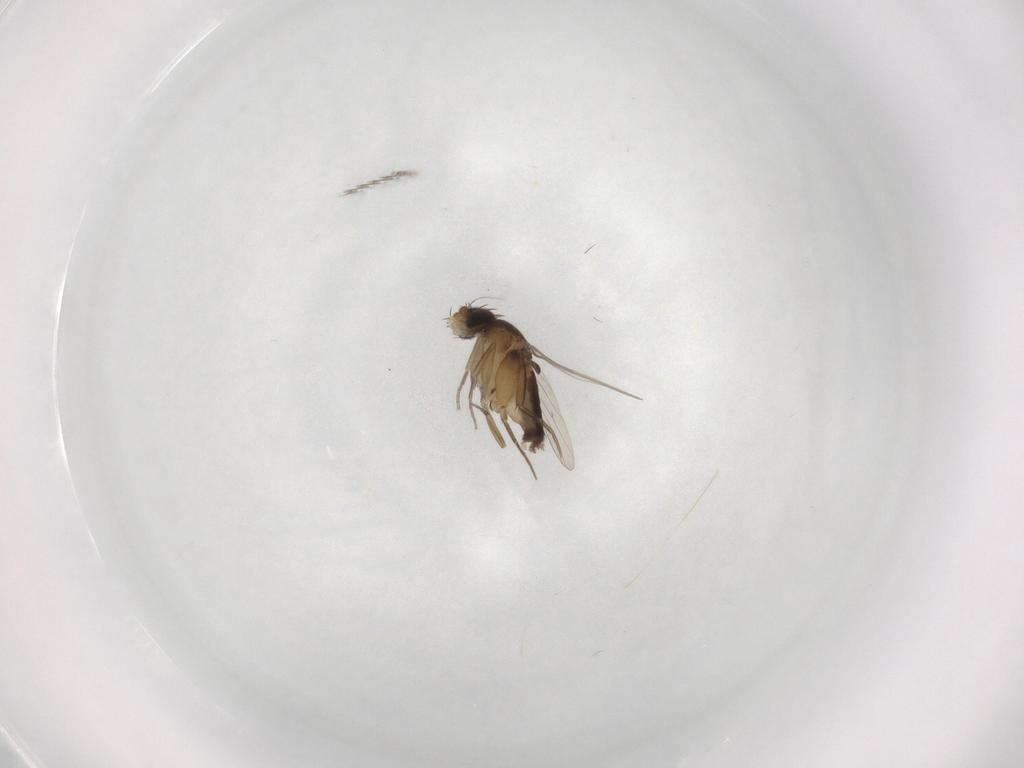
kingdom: Animalia
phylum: Arthropoda
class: Insecta
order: Diptera
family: Phoridae
